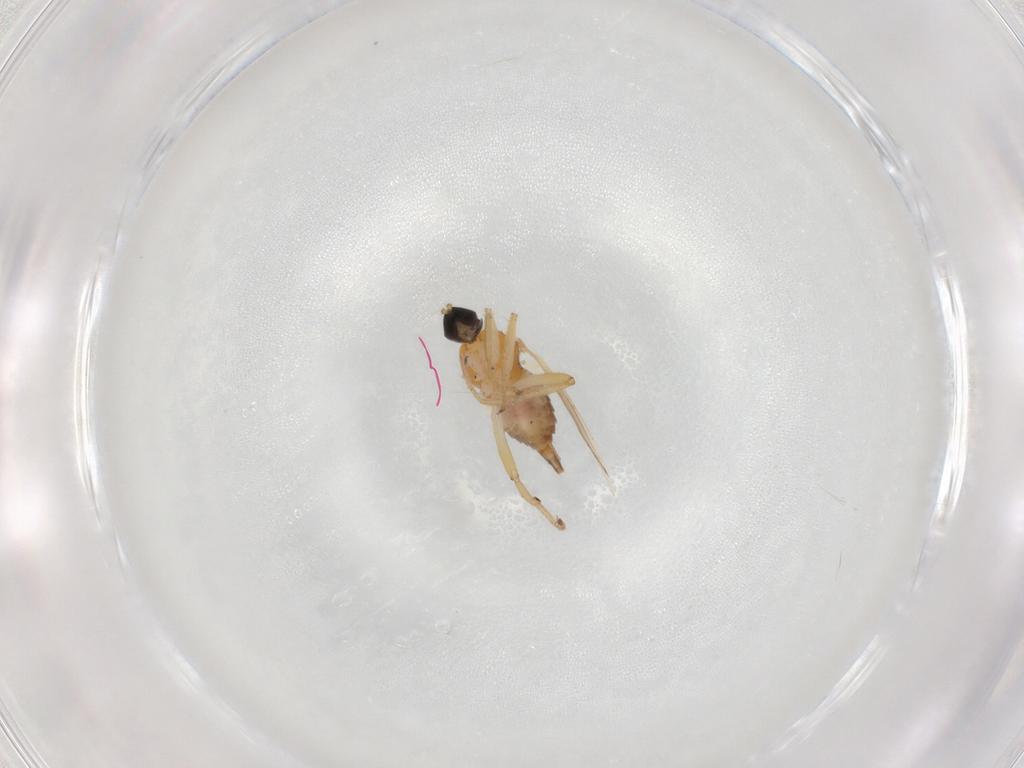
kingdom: Animalia
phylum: Arthropoda
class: Insecta
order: Diptera
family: Hybotidae
